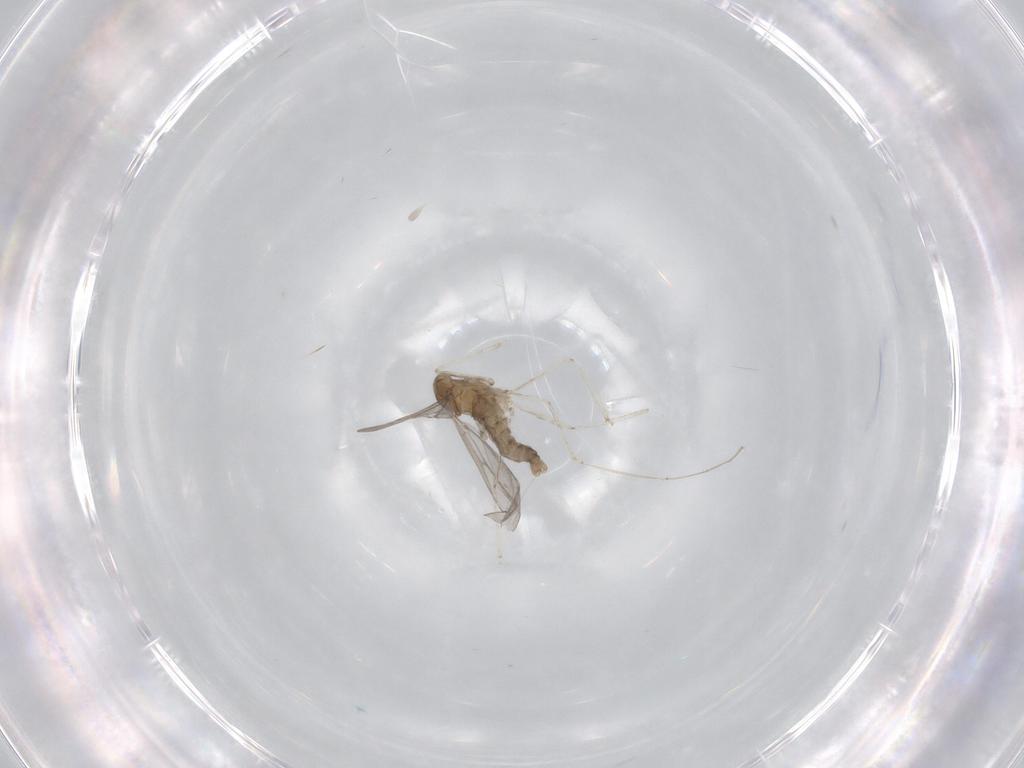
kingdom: Animalia
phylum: Arthropoda
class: Insecta
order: Diptera
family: Cecidomyiidae
